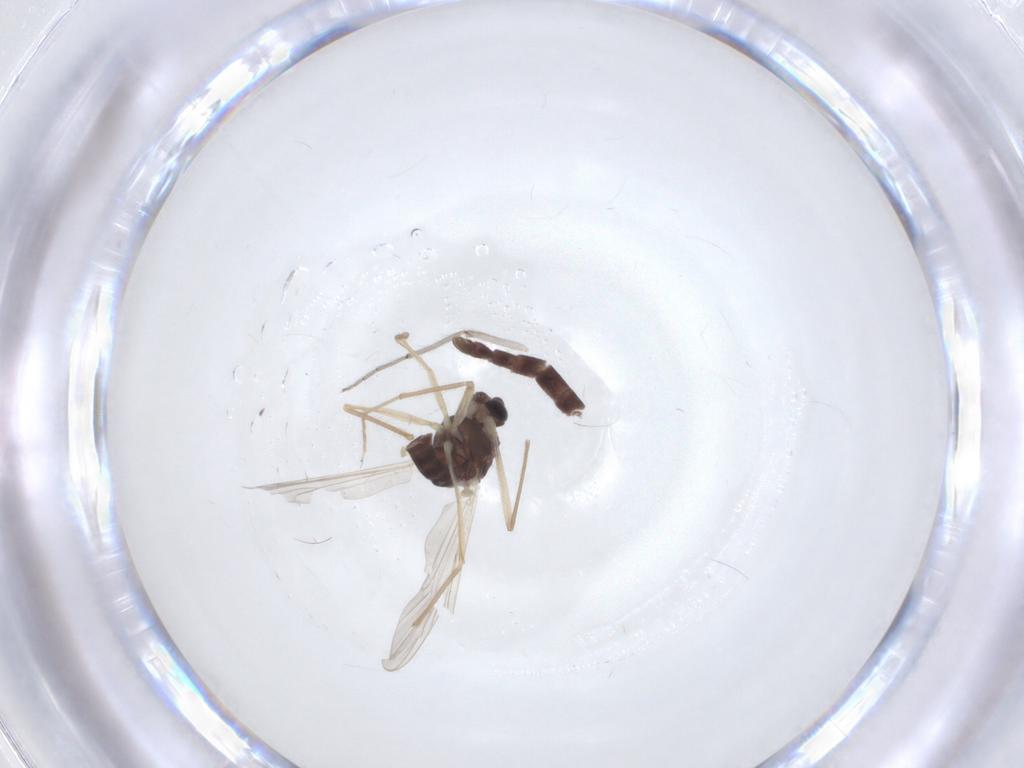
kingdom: Animalia
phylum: Arthropoda
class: Insecta
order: Diptera
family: Chironomidae
